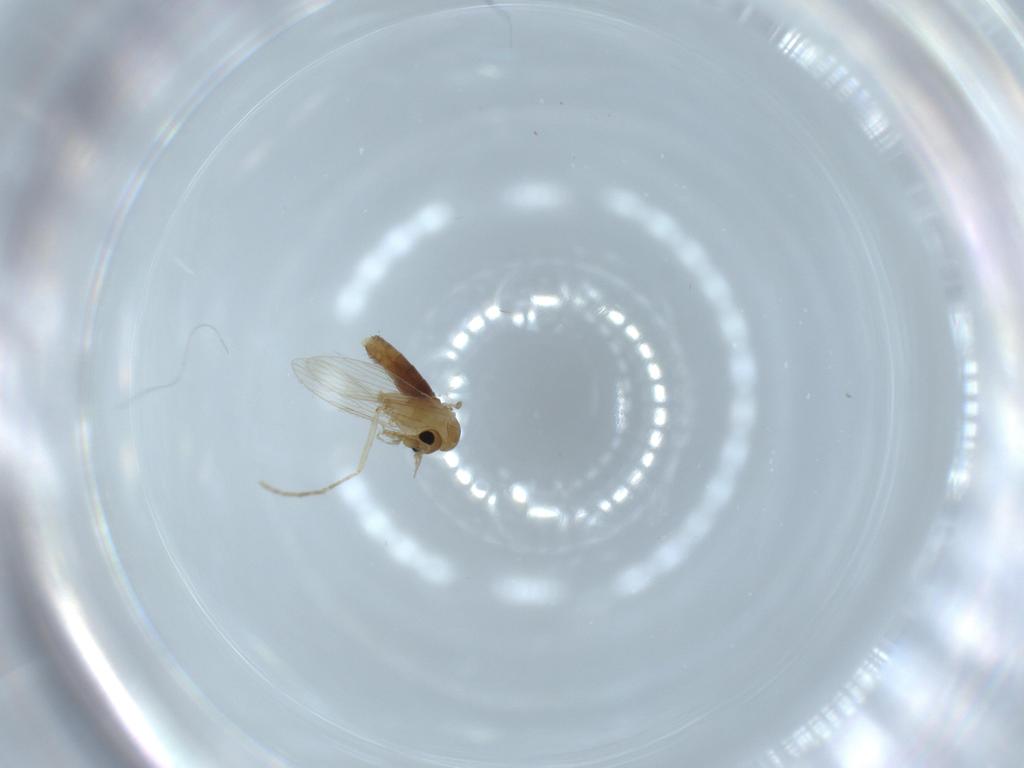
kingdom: Animalia
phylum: Arthropoda
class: Insecta
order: Diptera
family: Psychodidae
